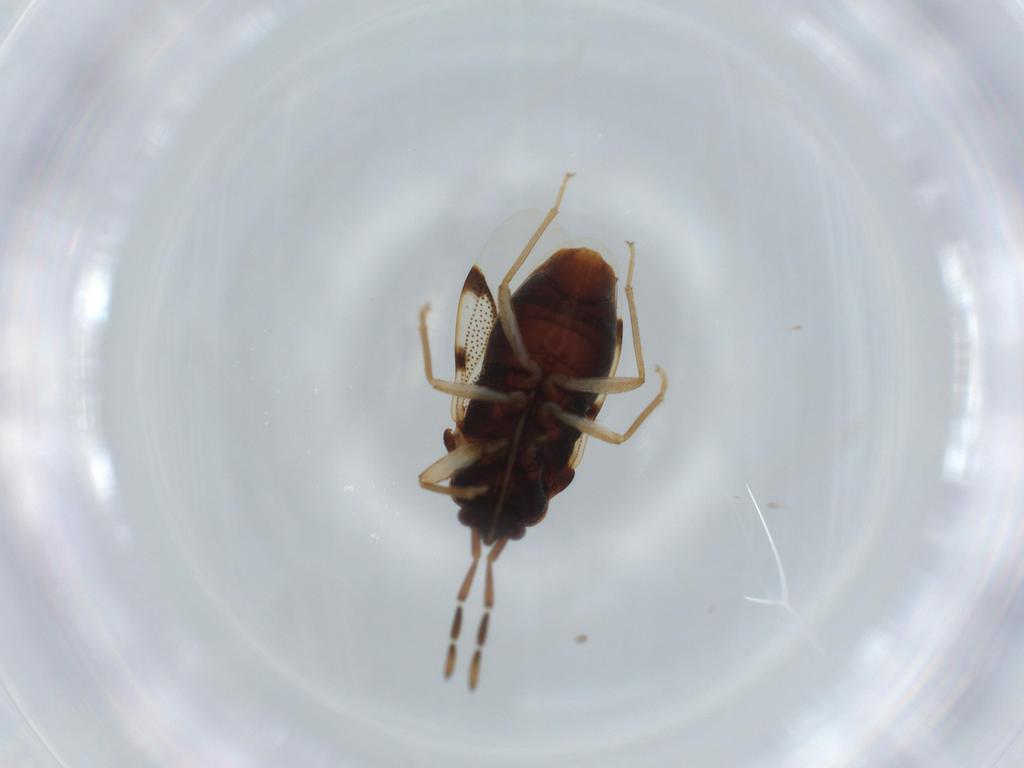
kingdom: Animalia
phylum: Arthropoda
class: Insecta
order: Hemiptera
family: Rhyparochromidae
